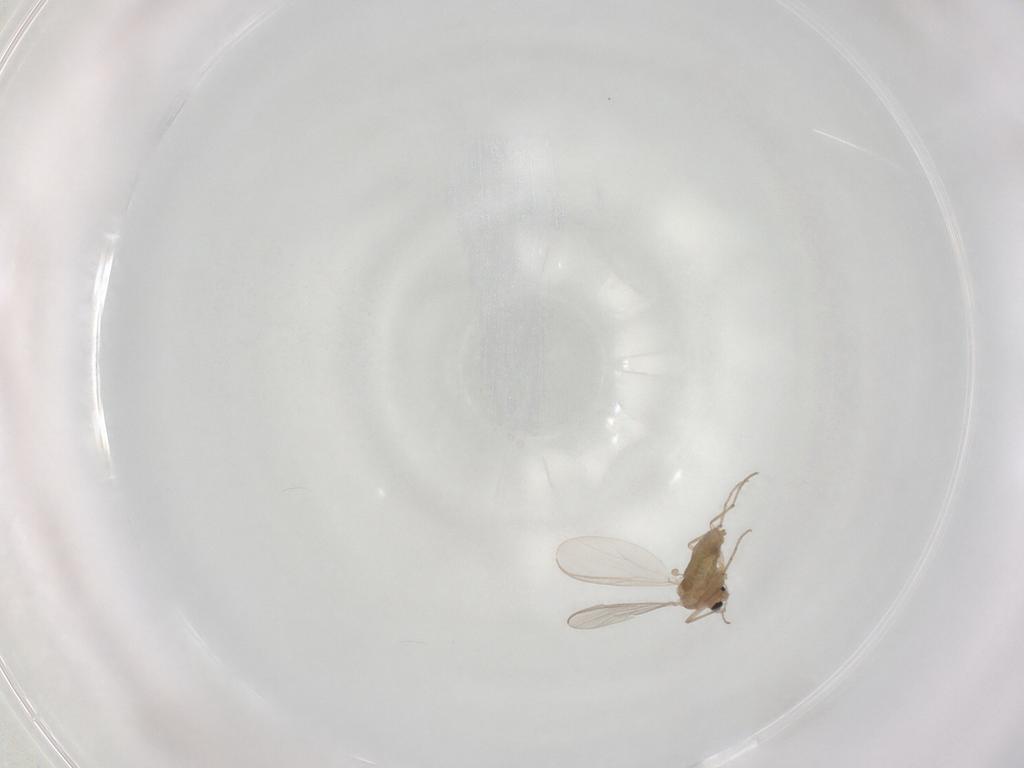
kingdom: Animalia
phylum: Arthropoda
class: Insecta
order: Diptera
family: Chironomidae
